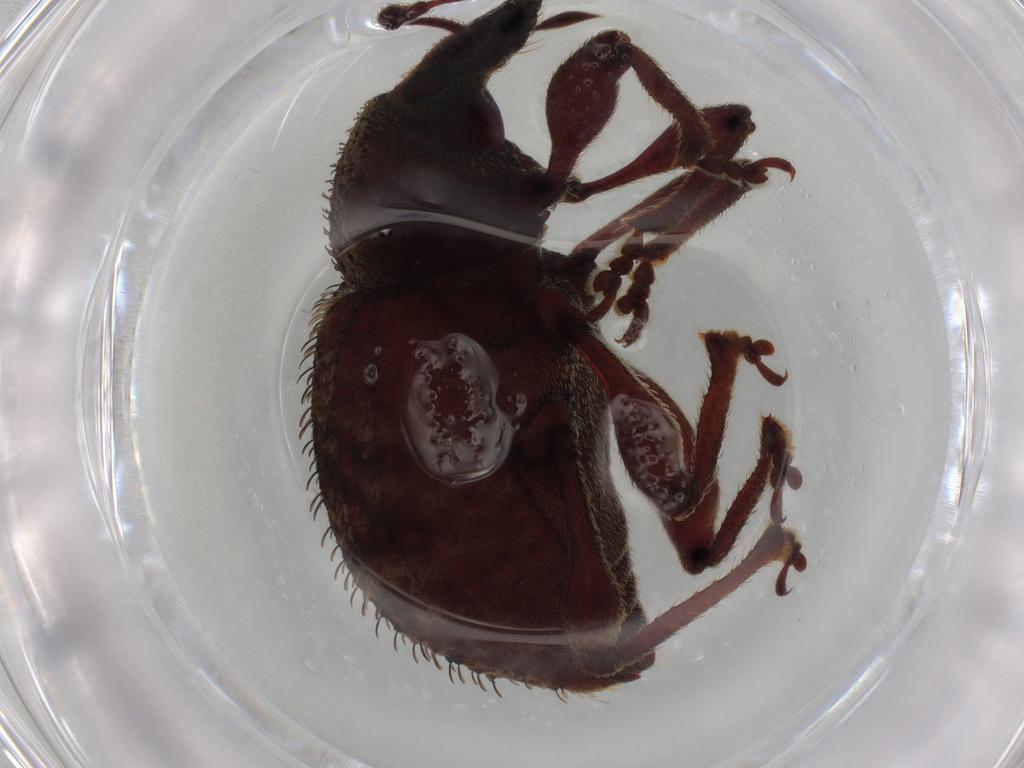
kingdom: Animalia
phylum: Arthropoda
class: Insecta
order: Coleoptera
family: Curculionidae
